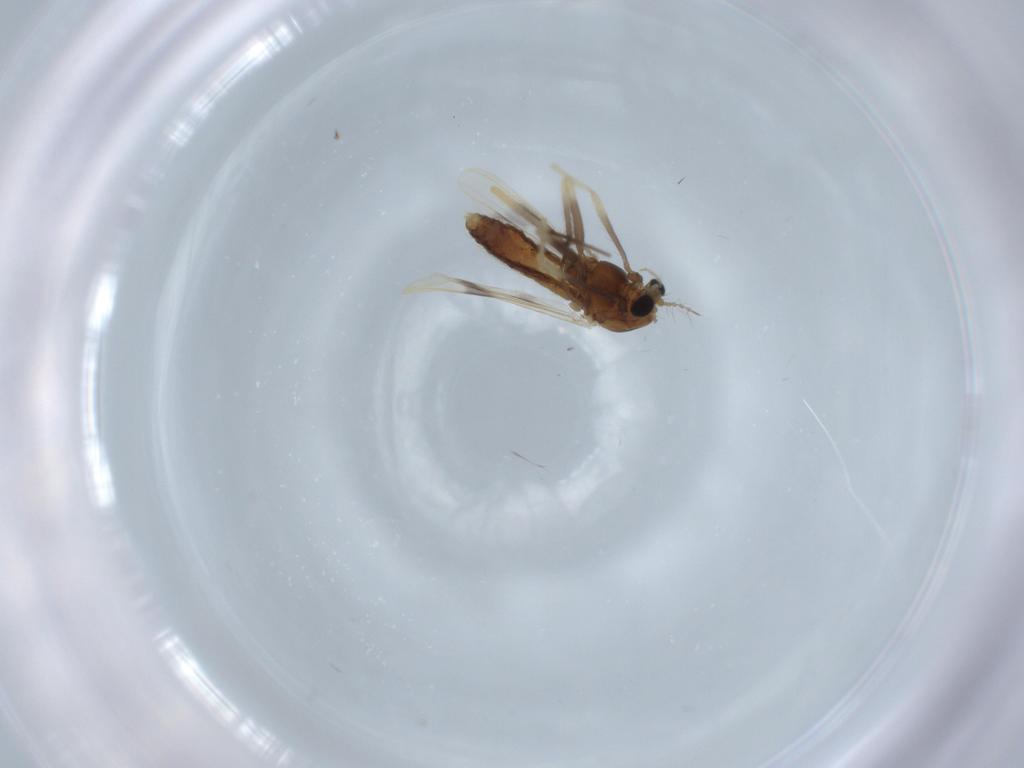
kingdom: Animalia
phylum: Arthropoda
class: Insecta
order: Diptera
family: Chironomidae
